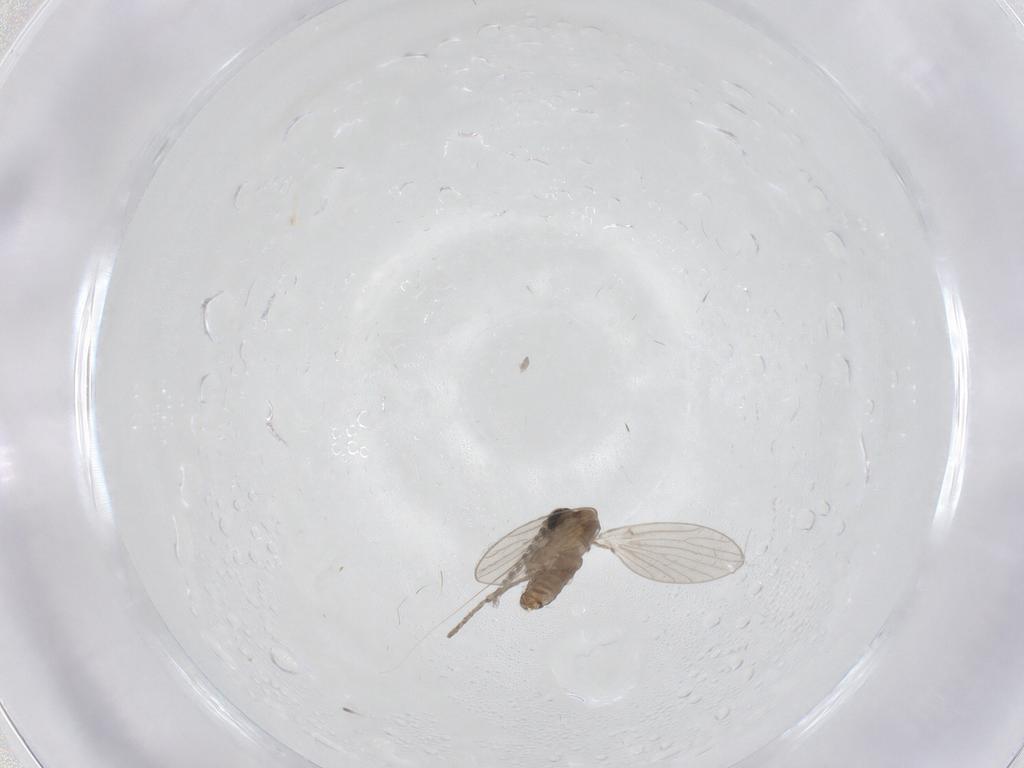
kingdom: Animalia
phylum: Arthropoda
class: Insecta
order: Diptera
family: Psychodidae
